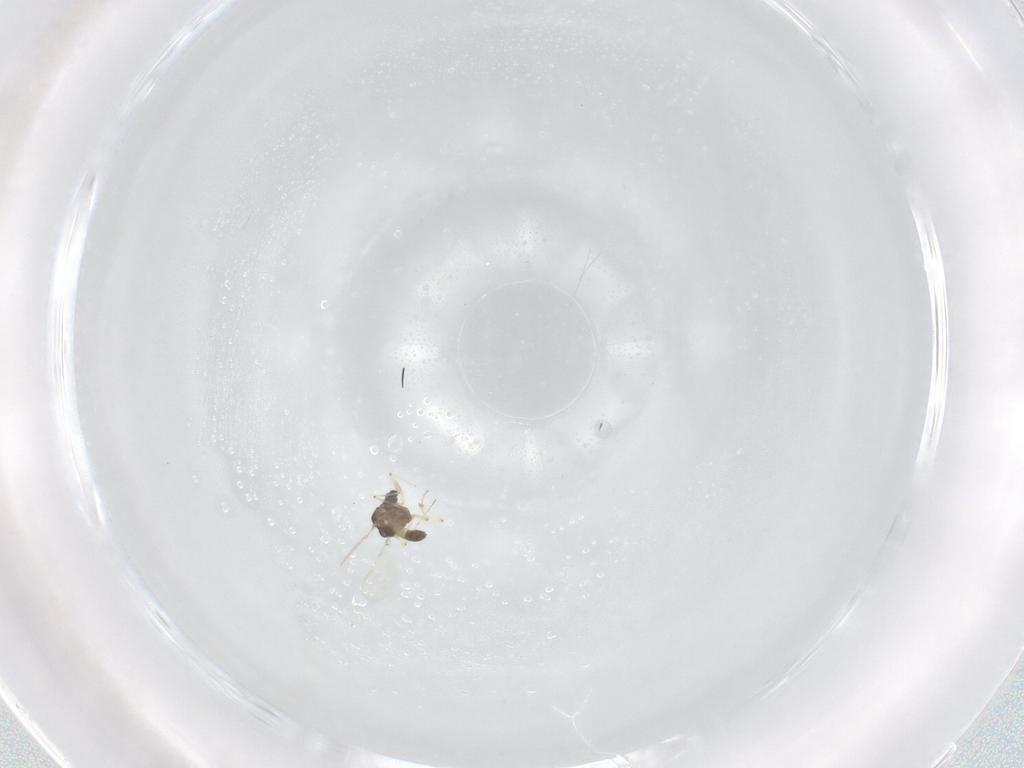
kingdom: Animalia
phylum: Arthropoda
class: Insecta
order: Diptera
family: Chironomidae
